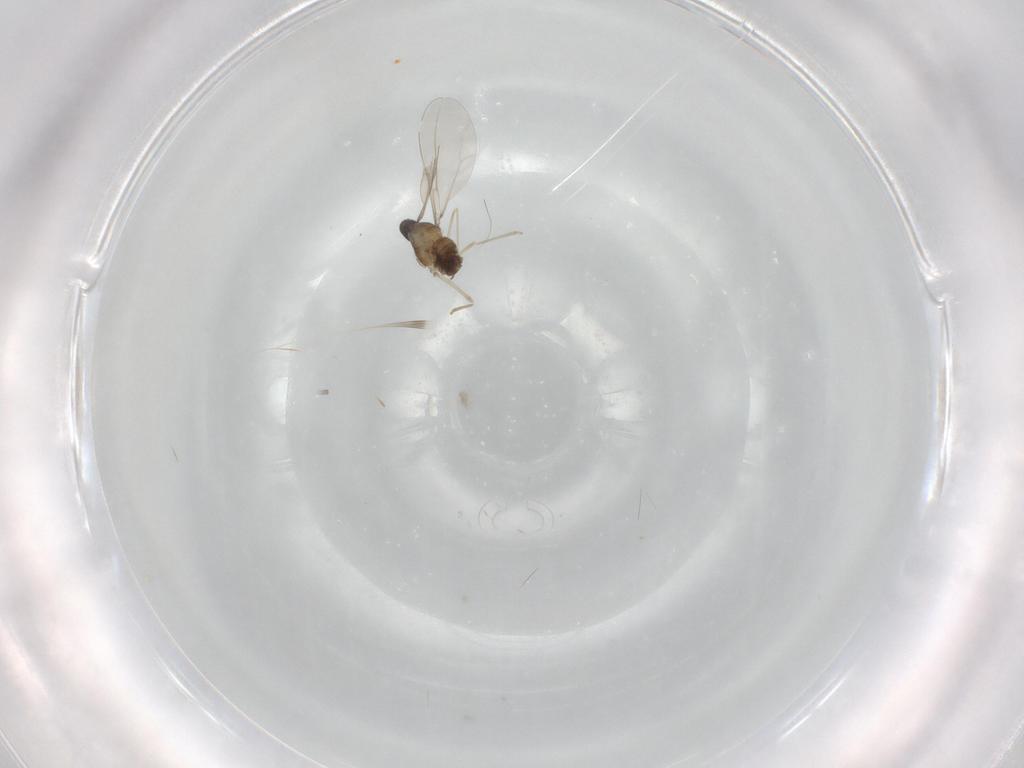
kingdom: Animalia
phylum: Arthropoda
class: Insecta
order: Diptera
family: Cecidomyiidae
